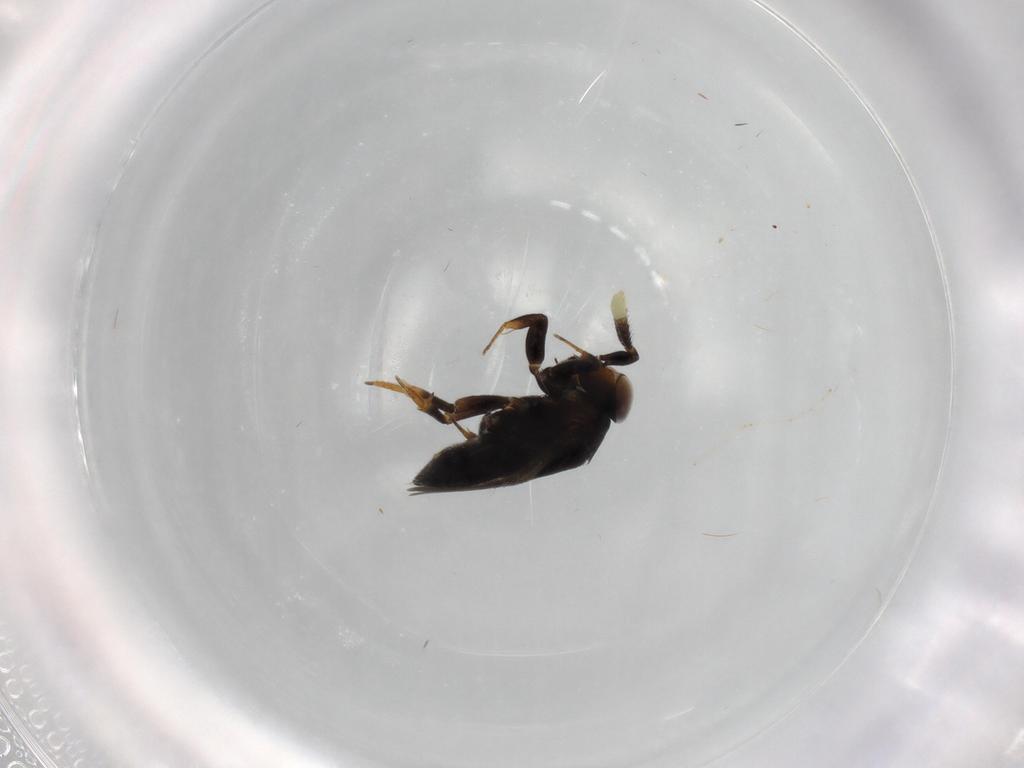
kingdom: Animalia
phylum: Arthropoda
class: Insecta
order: Hymenoptera
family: Encyrtidae
